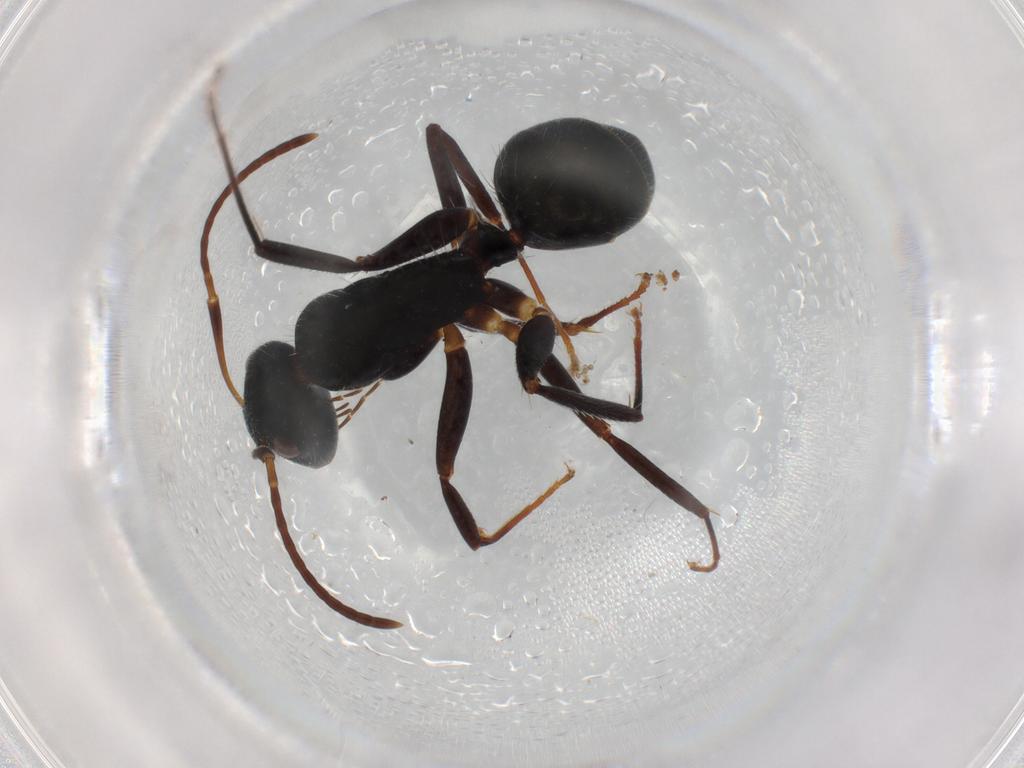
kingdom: Animalia
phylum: Arthropoda
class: Insecta
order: Hymenoptera
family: Formicidae
